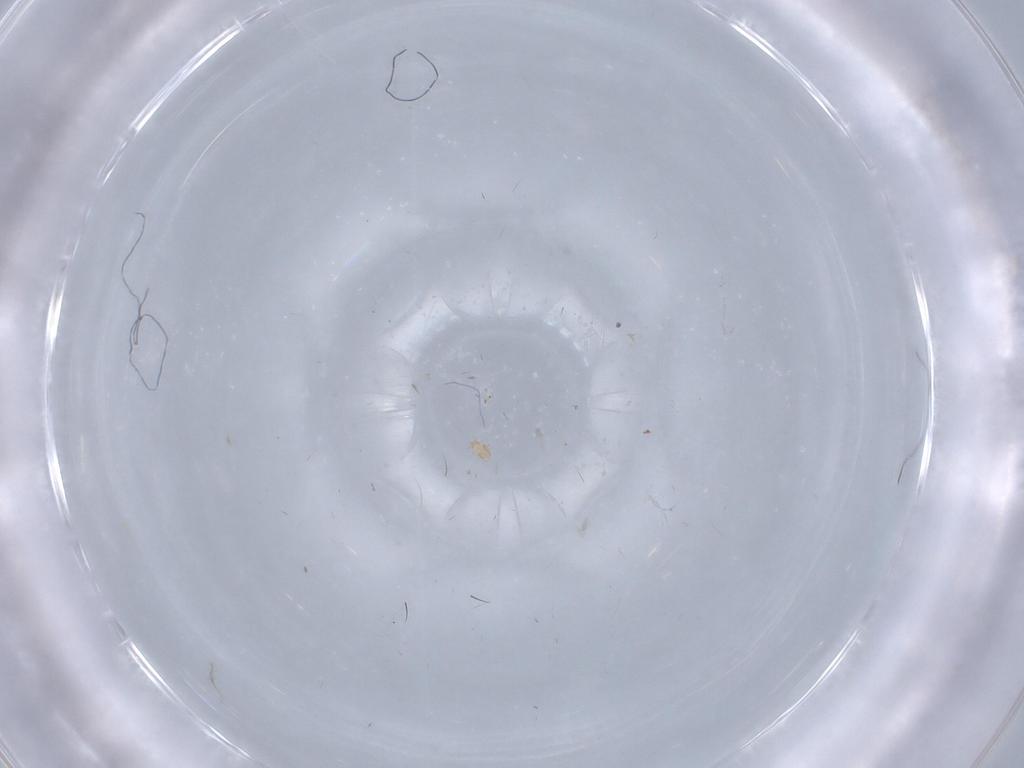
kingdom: Animalia
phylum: Arthropoda
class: Arachnida
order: Trombidiformes
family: Pygmephoridae
